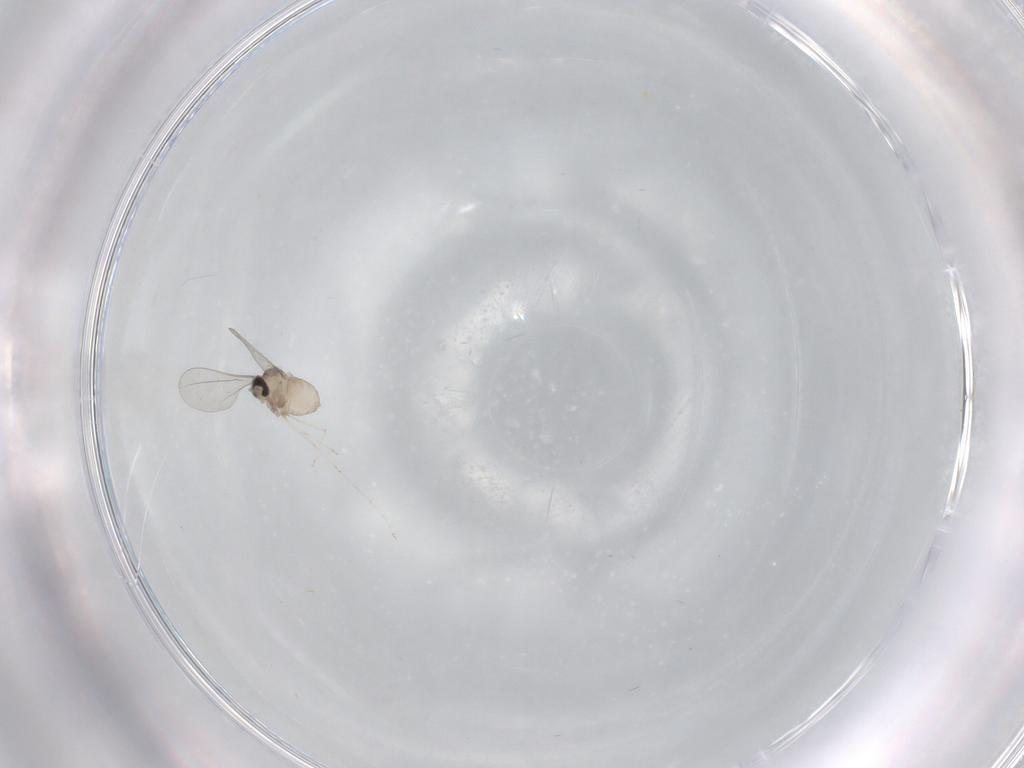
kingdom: Animalia
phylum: Arthropoda
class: Insecta
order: Diptera
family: Cecidomyiidae
